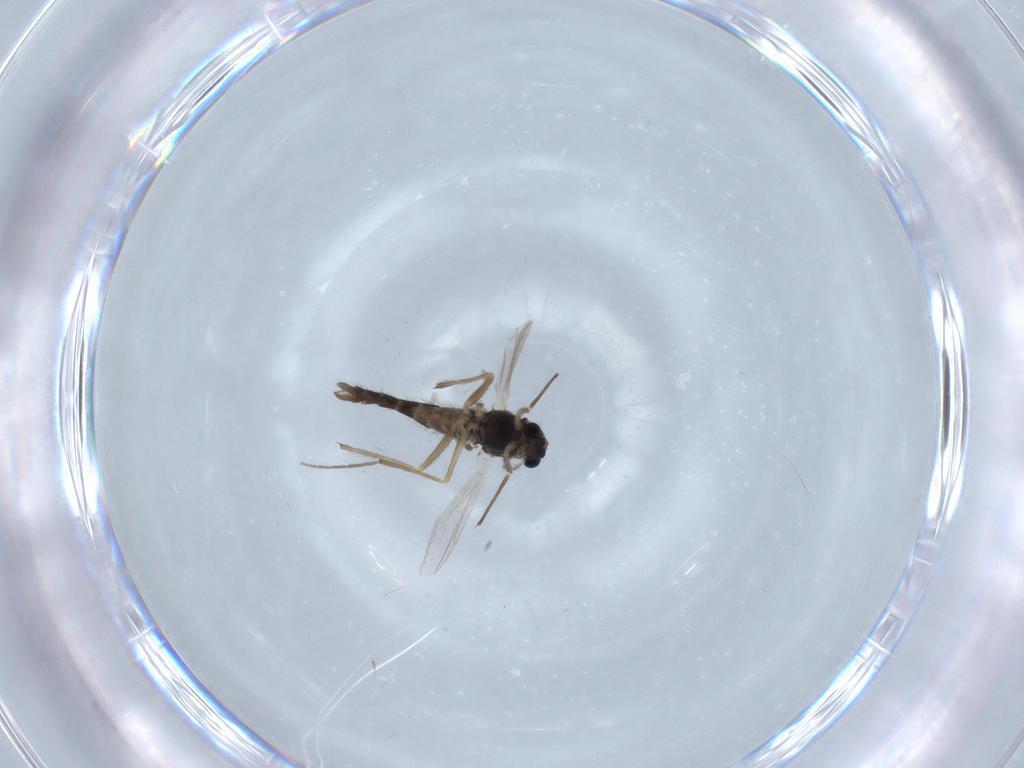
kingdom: Animalia
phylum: Arthropoda
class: Insecta
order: Diptera
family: Chironomidae
